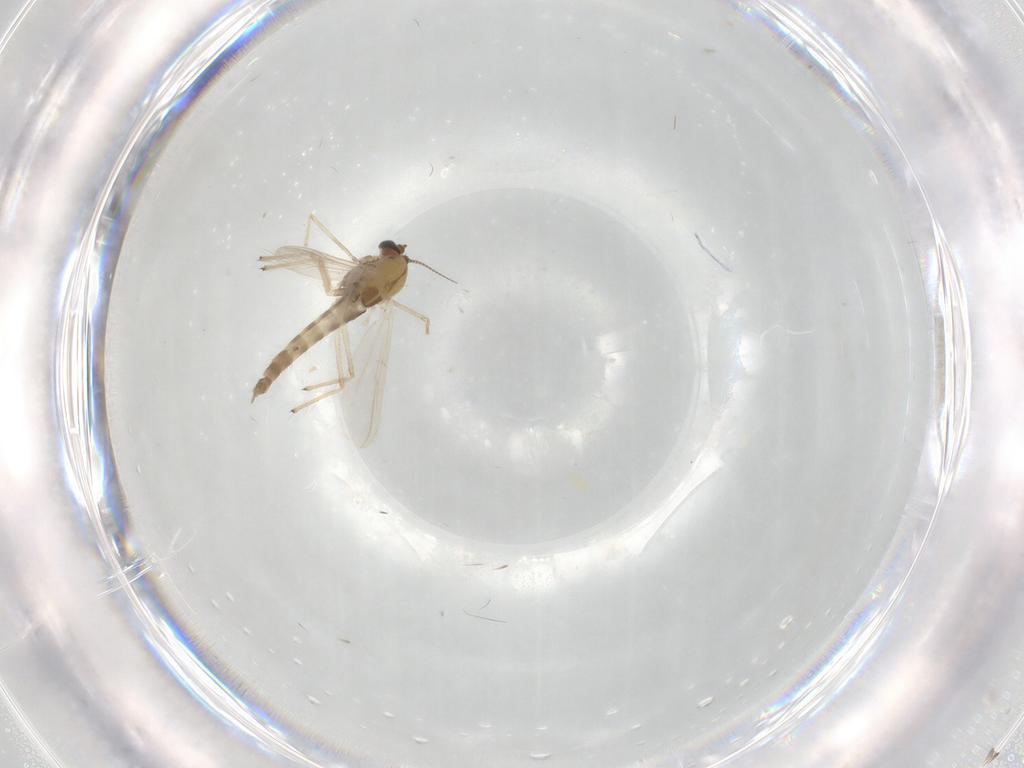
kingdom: Animalia
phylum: Arthropoda
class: Insecta
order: Diptera
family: Chironomidae
